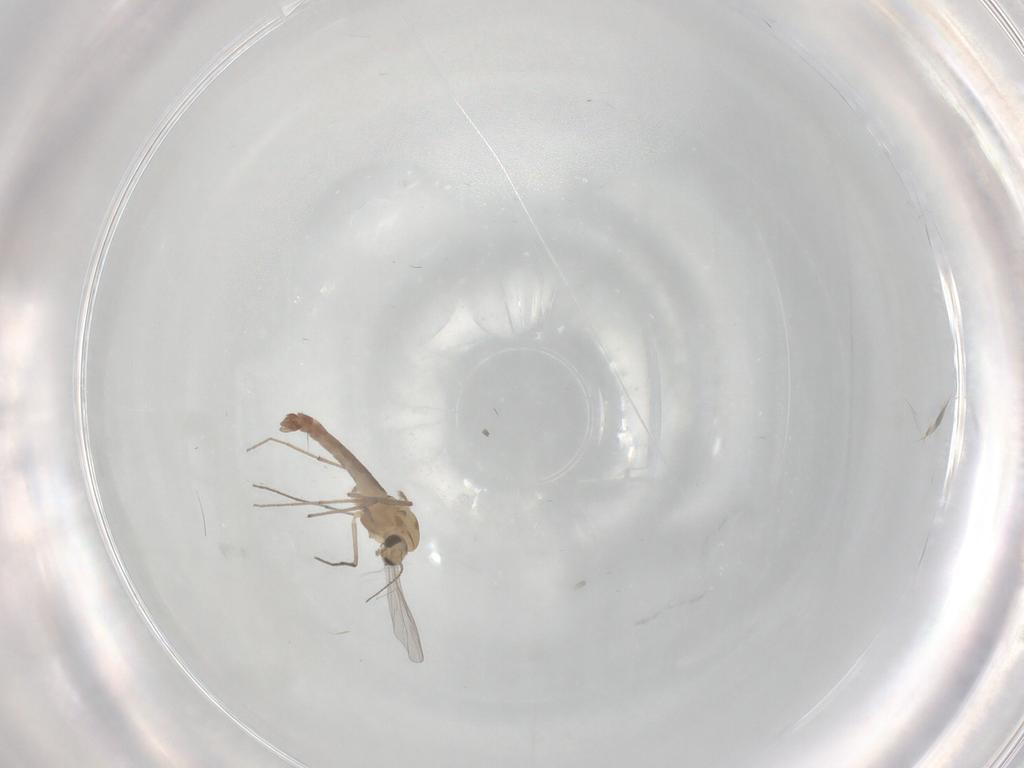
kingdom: Animalia
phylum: Arthropoda
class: Insecta
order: Diptera
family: Chironomidae
